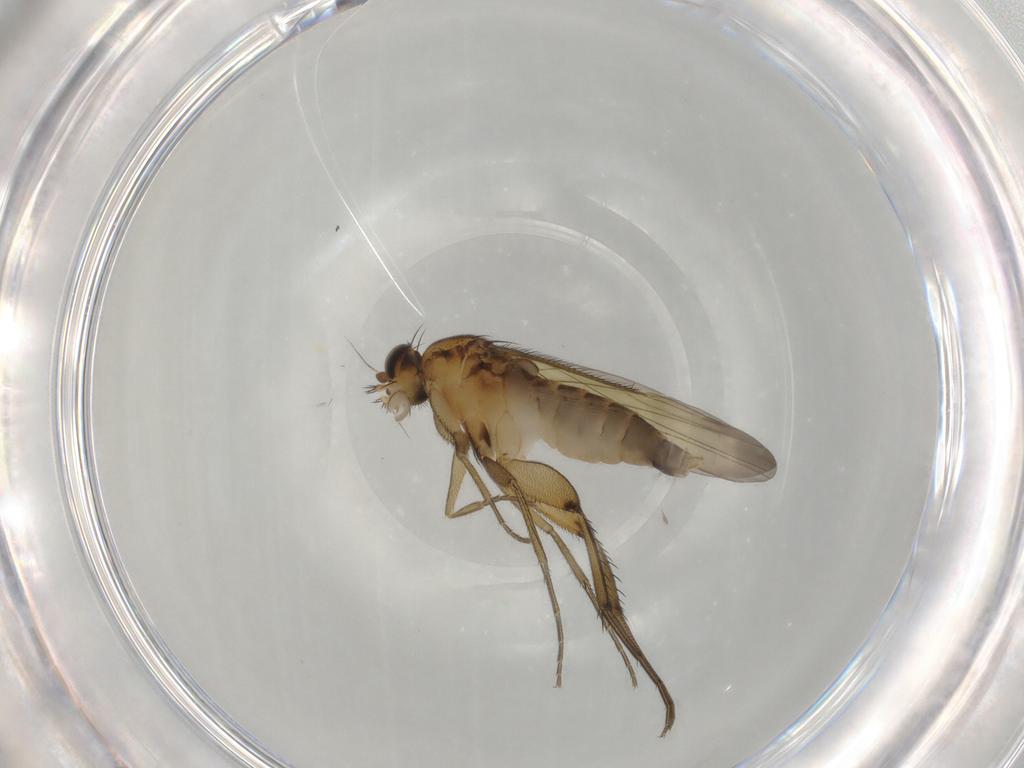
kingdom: Animalia
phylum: Arthropoda
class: Insecta
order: Diptera
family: Phoridae
